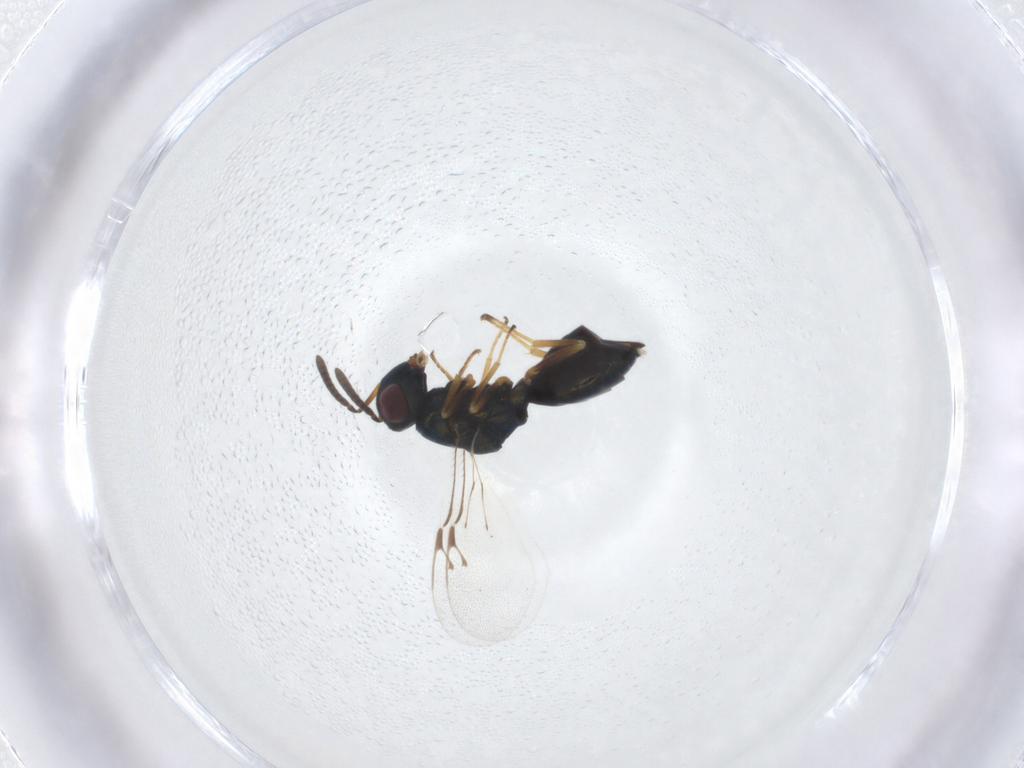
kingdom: Animalia
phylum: Arthropoda
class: Insecta
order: Hymenoptera
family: Pteromalidae
